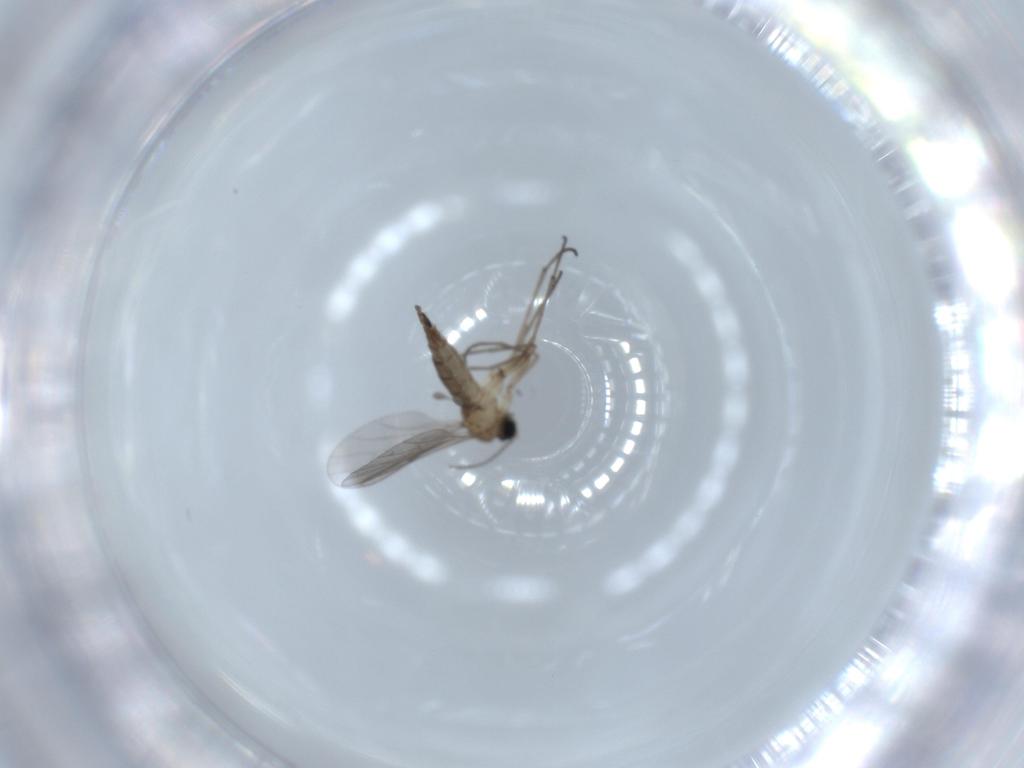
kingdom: Animalia
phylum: Arthropoda
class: Insecta
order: Diptera
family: Sciaridae
